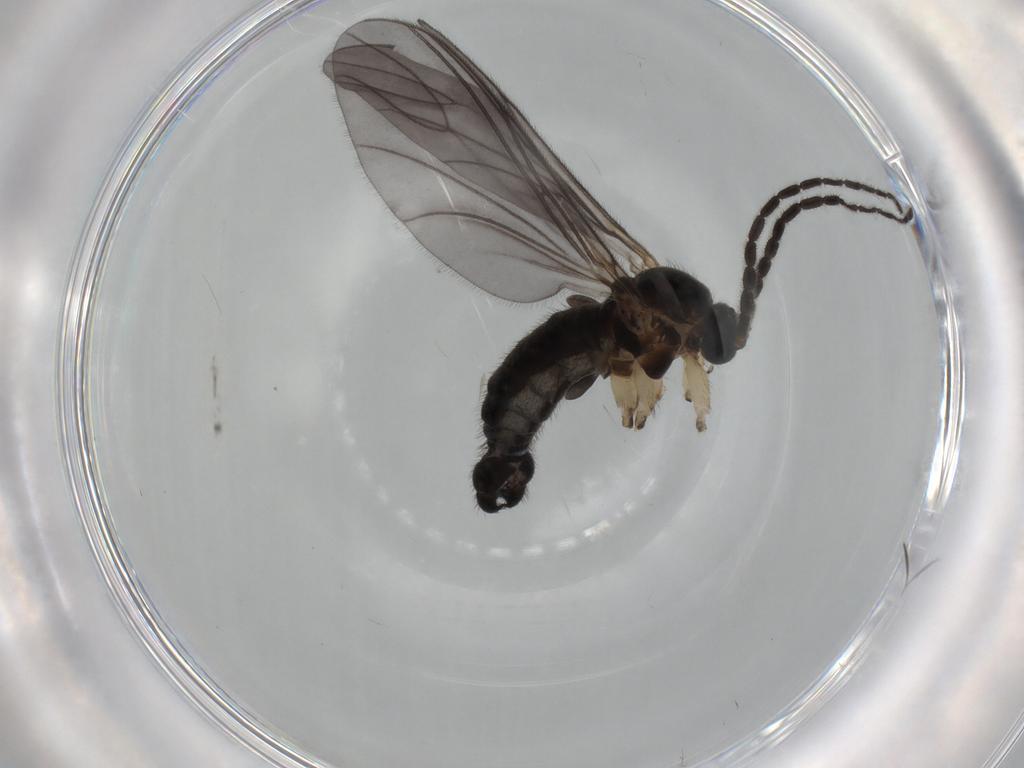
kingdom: Animalia
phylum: Arthropoda
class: Insecta
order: Diptera
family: Sciaridae
